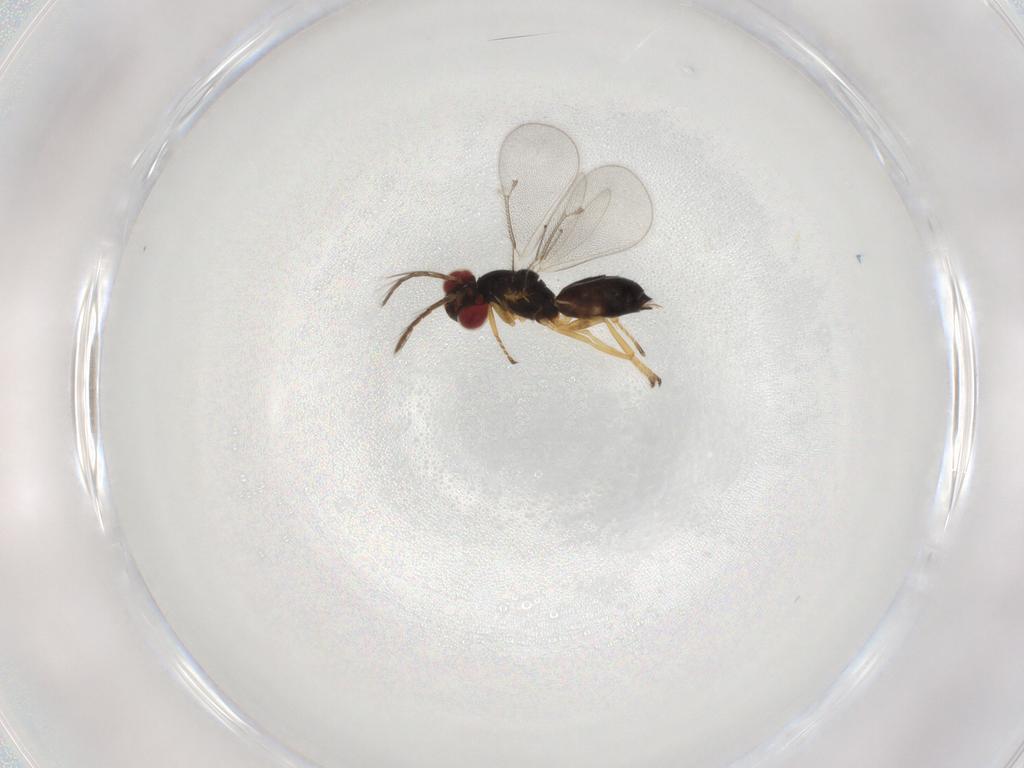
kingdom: Animalia
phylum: Arthropoda
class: Insecta
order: Hymenoptera
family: Eulophidae
